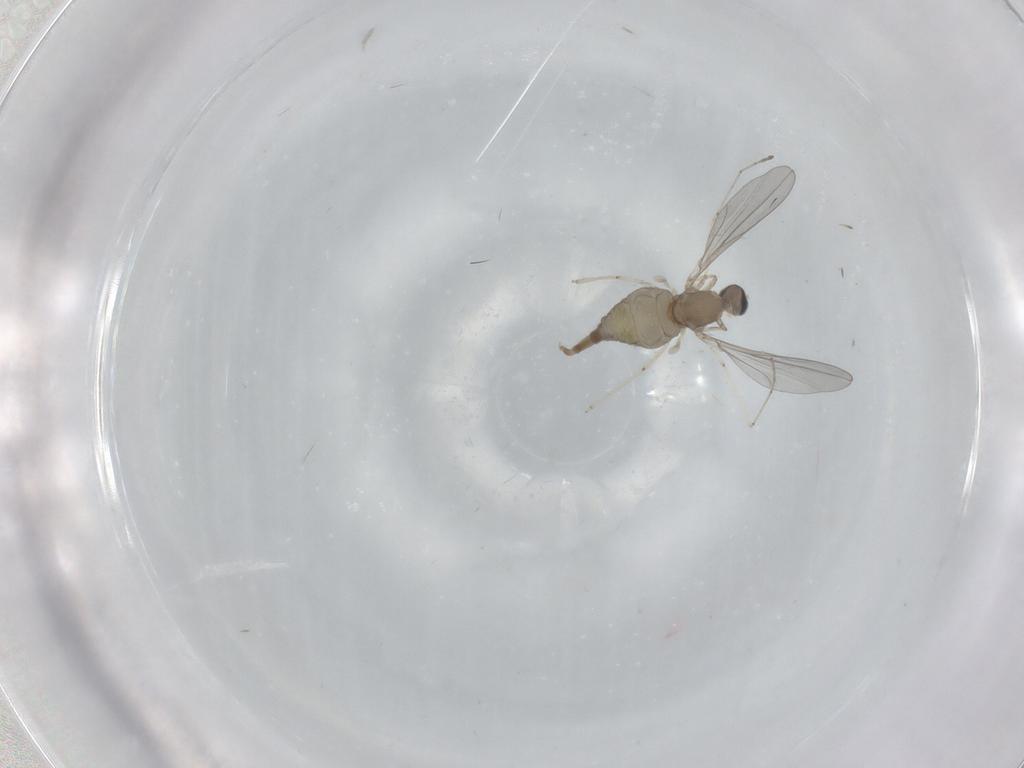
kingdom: Animalia
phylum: Arthropoda
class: Insecta
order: Diptera
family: Cecidomyiidae
